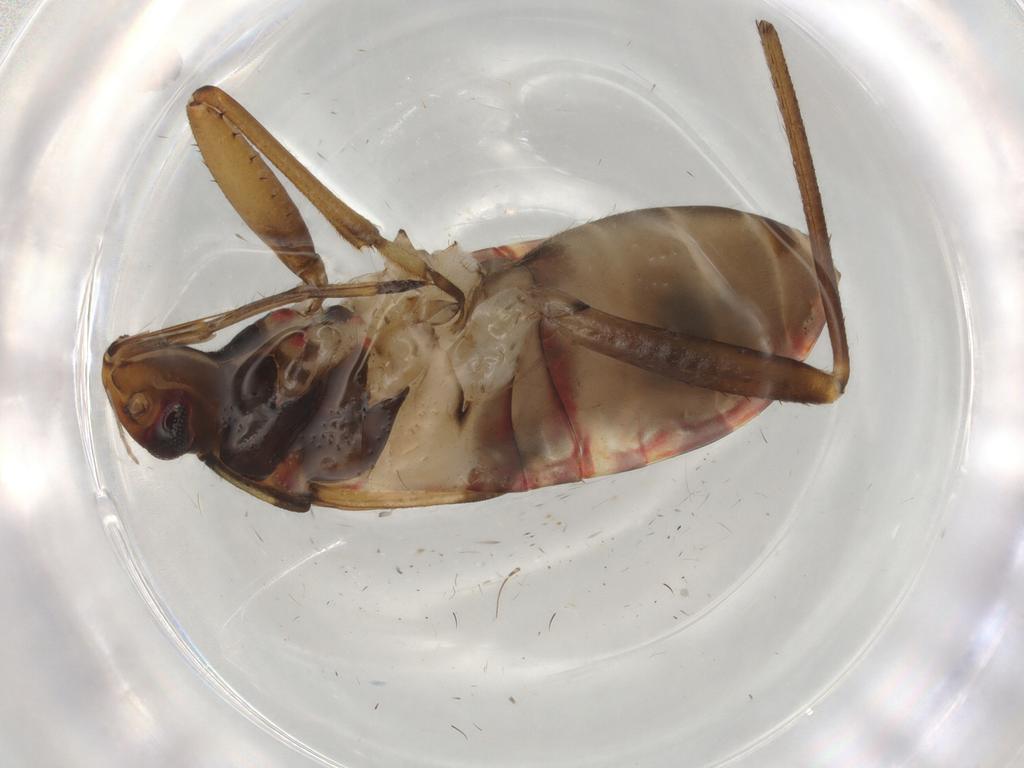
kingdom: Animalia
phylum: Arthropoda
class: Insecta
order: Hemiptera
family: Rhyparochromidae
